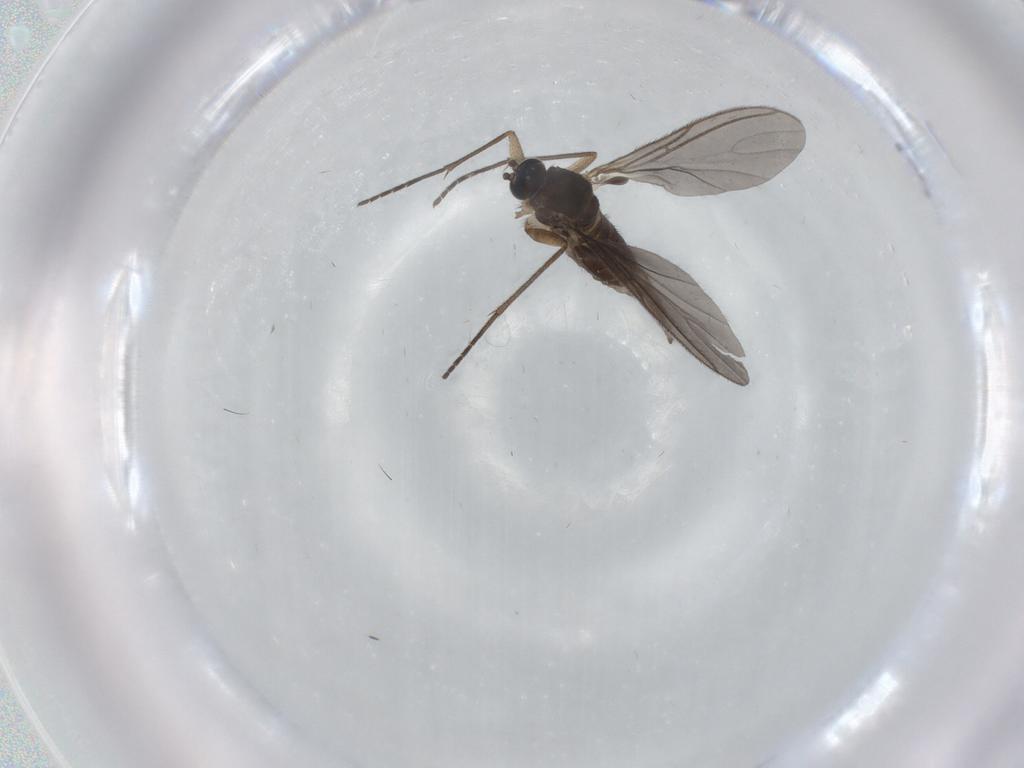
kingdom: Animalia
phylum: Arthropoda
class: Insecta
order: Diptera
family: Sciaridae
